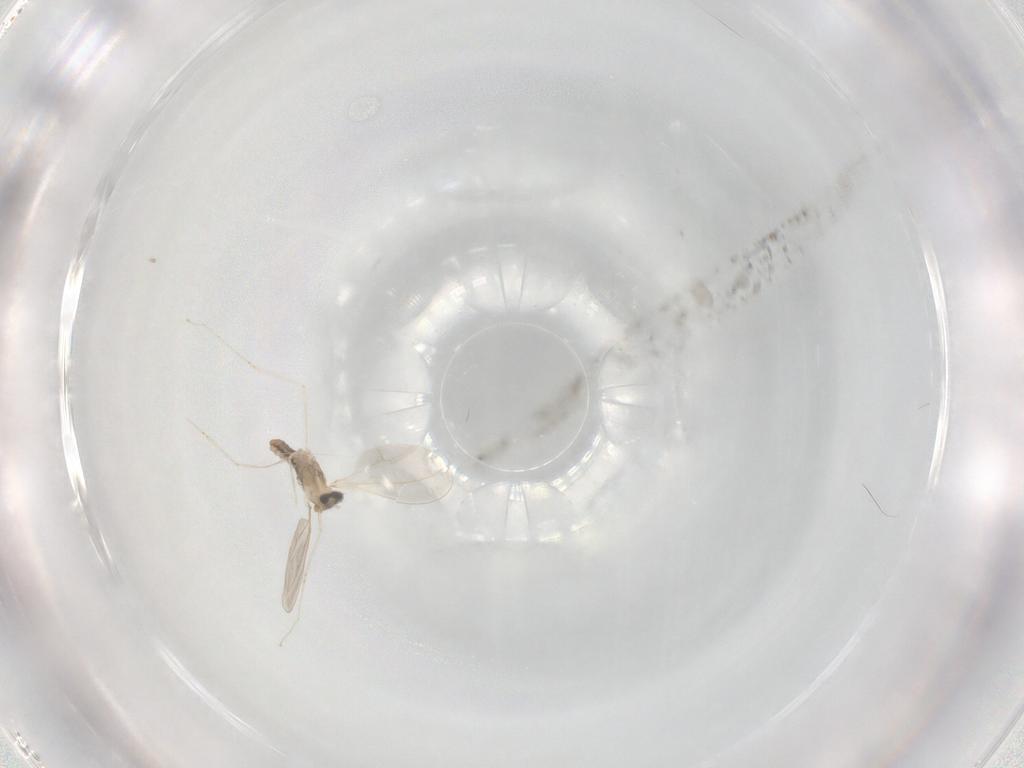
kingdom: Animalia
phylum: Arthropoda
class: Insecta
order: Diptera
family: Cecidomyiidae
